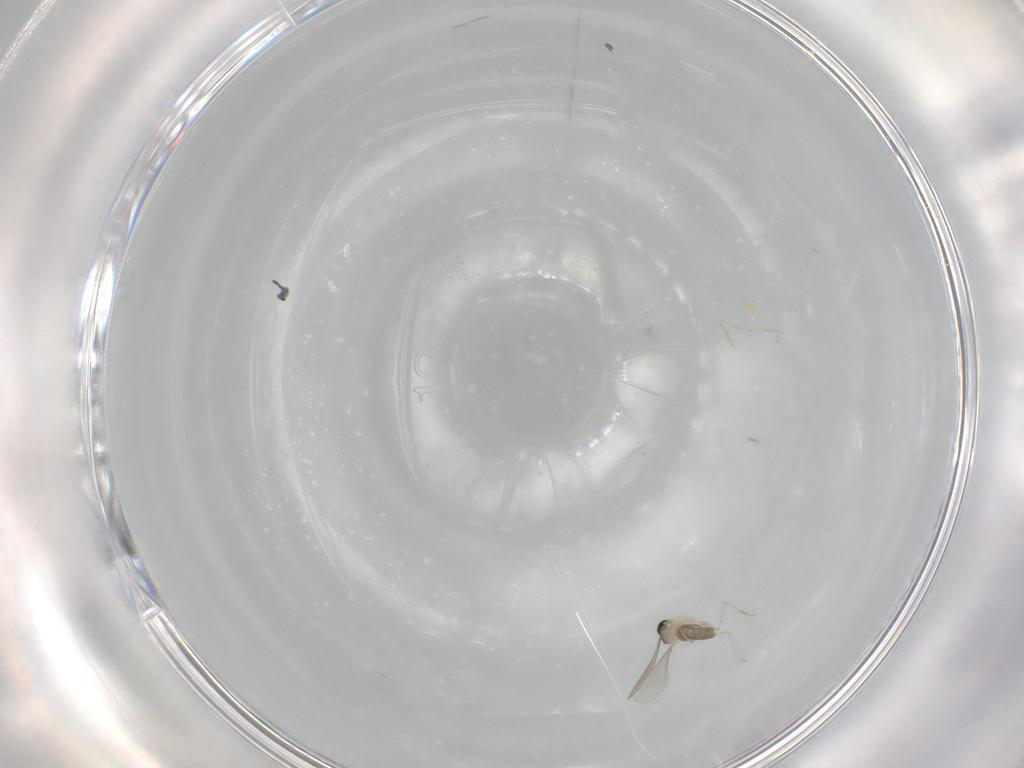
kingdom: Animalia
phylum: Arthropoda
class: Insecta
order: Diptera
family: Cecidomyiidae
